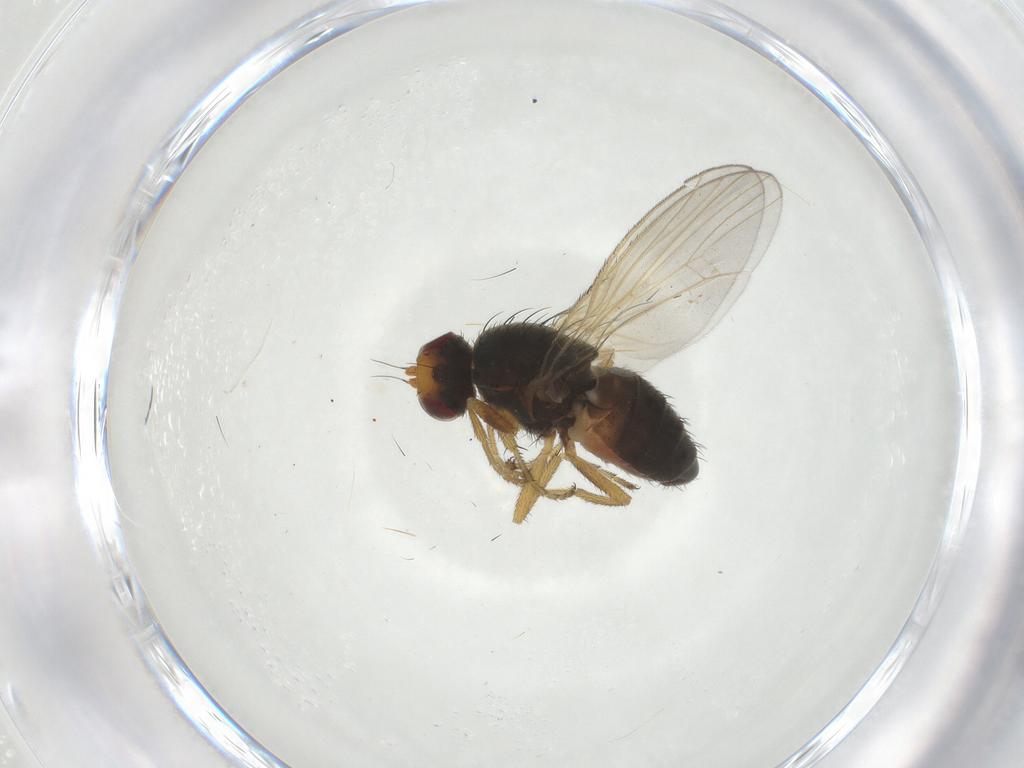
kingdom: Animalia
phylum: Arthropoda
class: Insecta
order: Diptera
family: Heleomyzidae
